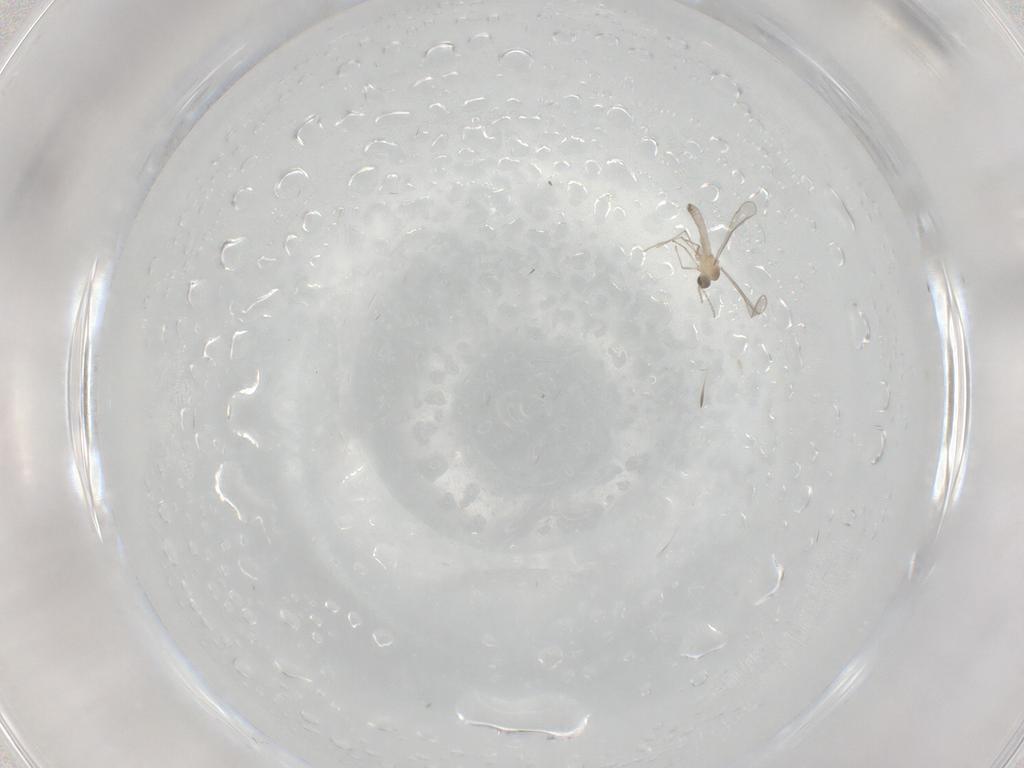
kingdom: Animalia
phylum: Arthropoda
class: Insecta
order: Diptera
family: Cecidomyiidae
